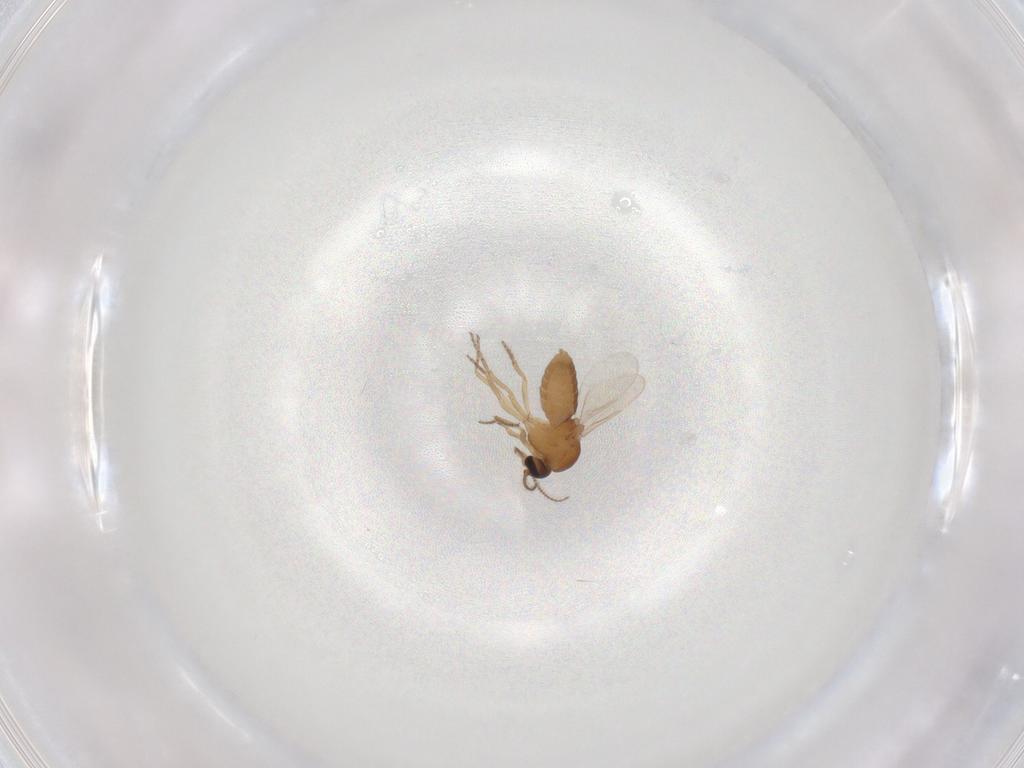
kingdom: Animalia
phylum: Arthropoda
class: Insecta
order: Diptera
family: Ceratopogonidae
